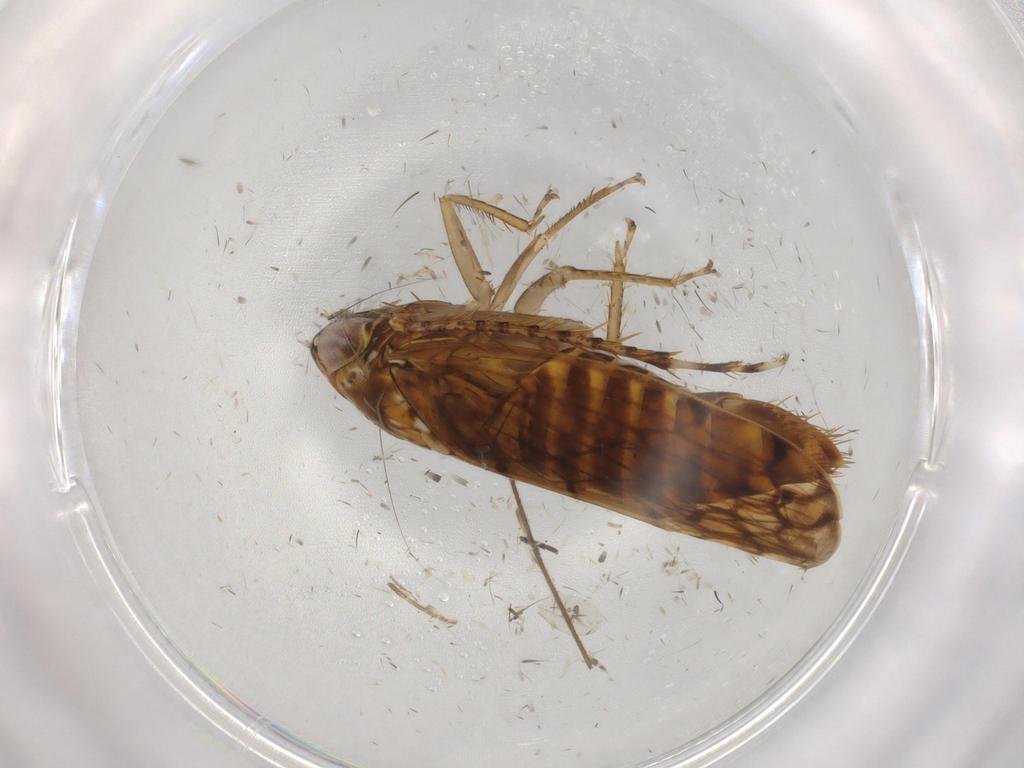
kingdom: Animalia
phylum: Arthropoda
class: Insecta
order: Hemiptera
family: Cicadellidae
